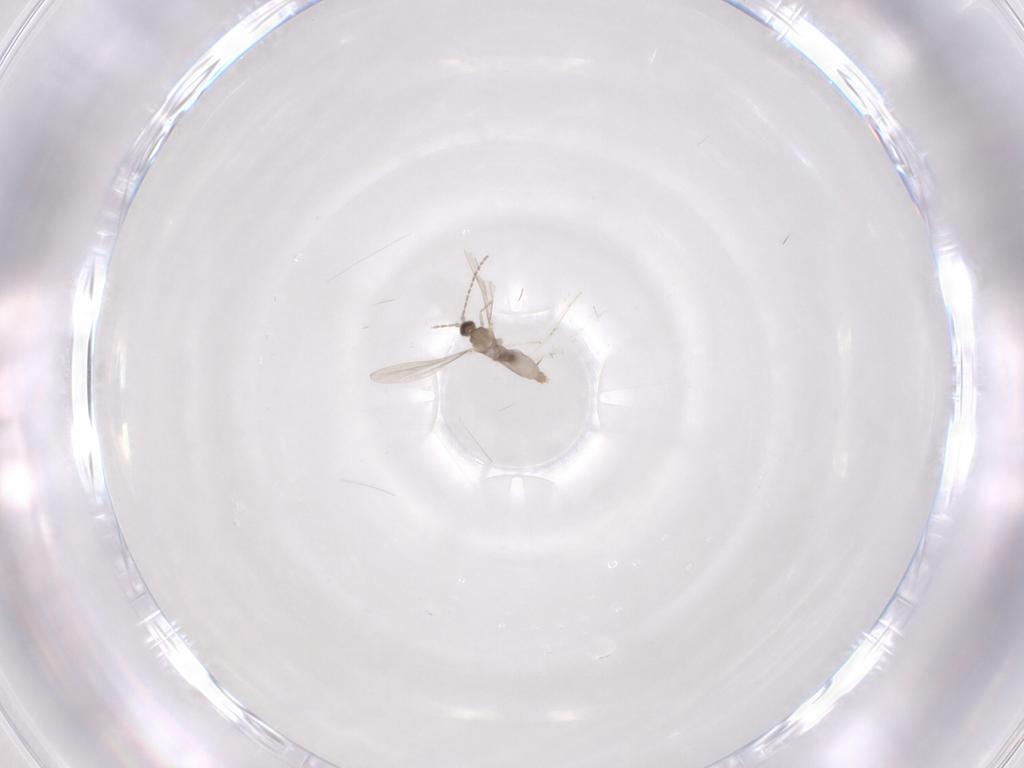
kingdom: Animalia
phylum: Arthropoda
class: Insecta
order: Diptera
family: Cecidomyiidae
